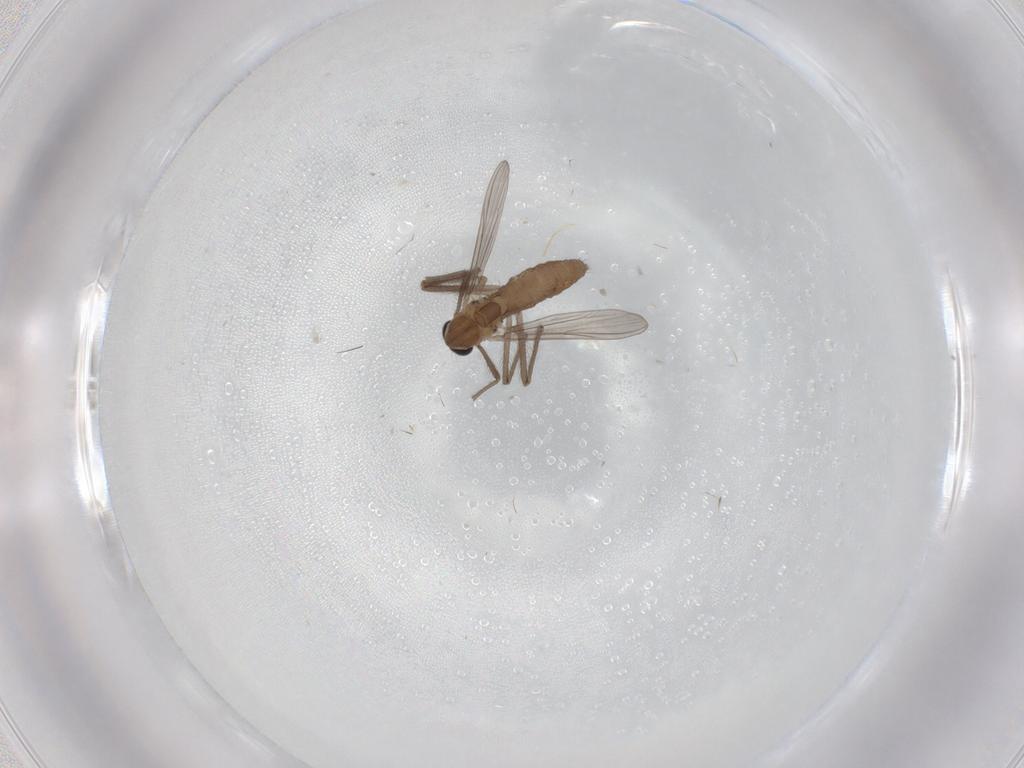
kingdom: Animalia
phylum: Arthropoda
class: Insecta
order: Diptera
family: Chironomidae
